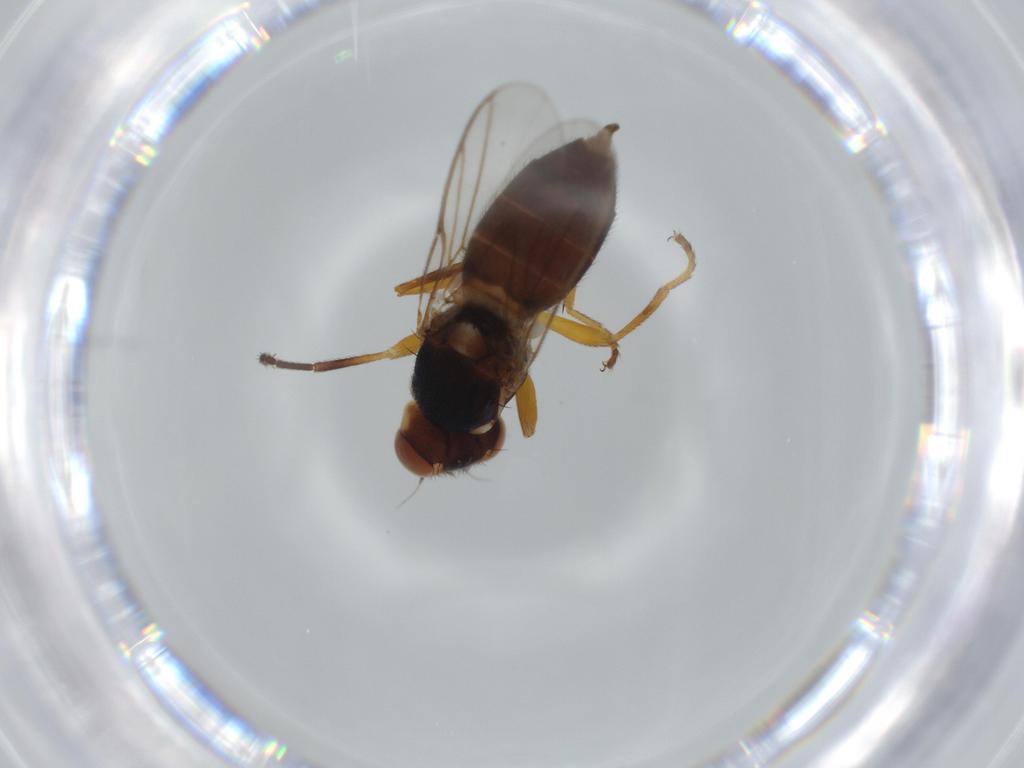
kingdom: Animalia
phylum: Arthropoda
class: Insecta
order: Diptera
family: Chloropidae
